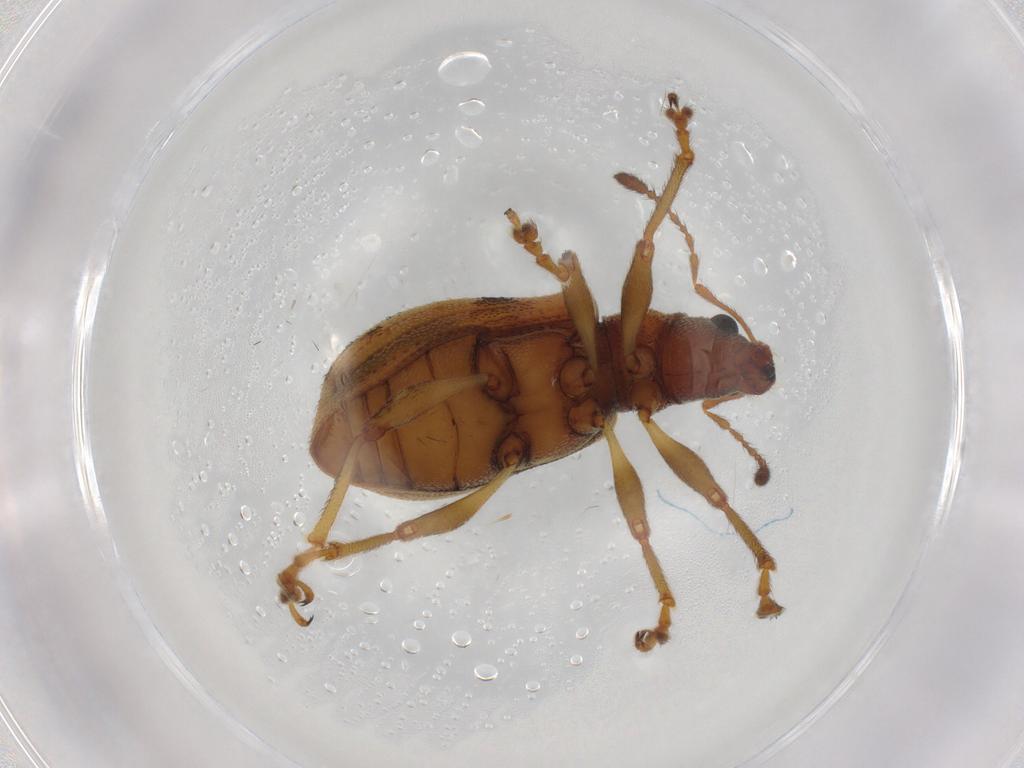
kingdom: Animalia
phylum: Arthropoda
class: Insecta
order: Coleoptera
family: Curculionidae
